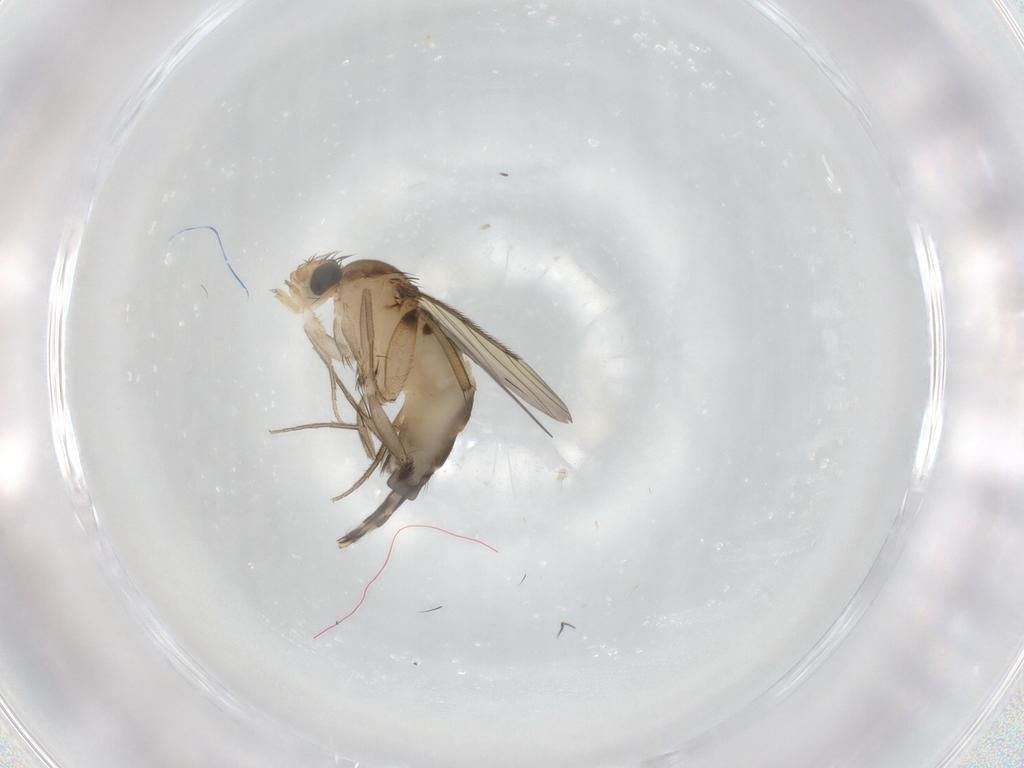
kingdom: Animalia
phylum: Arthropoda
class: Insecta
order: Diptera
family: Phoridae
